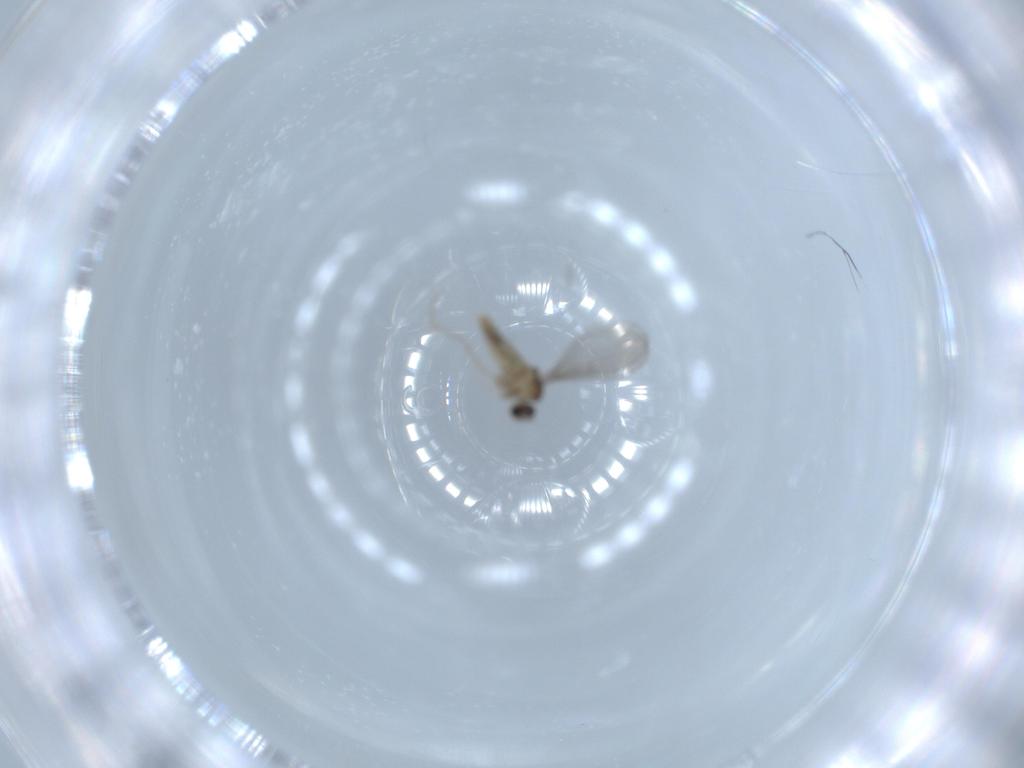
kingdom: Animalia
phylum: Arthropoda
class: Insecta
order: Diptera
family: Cecidomyiidae
